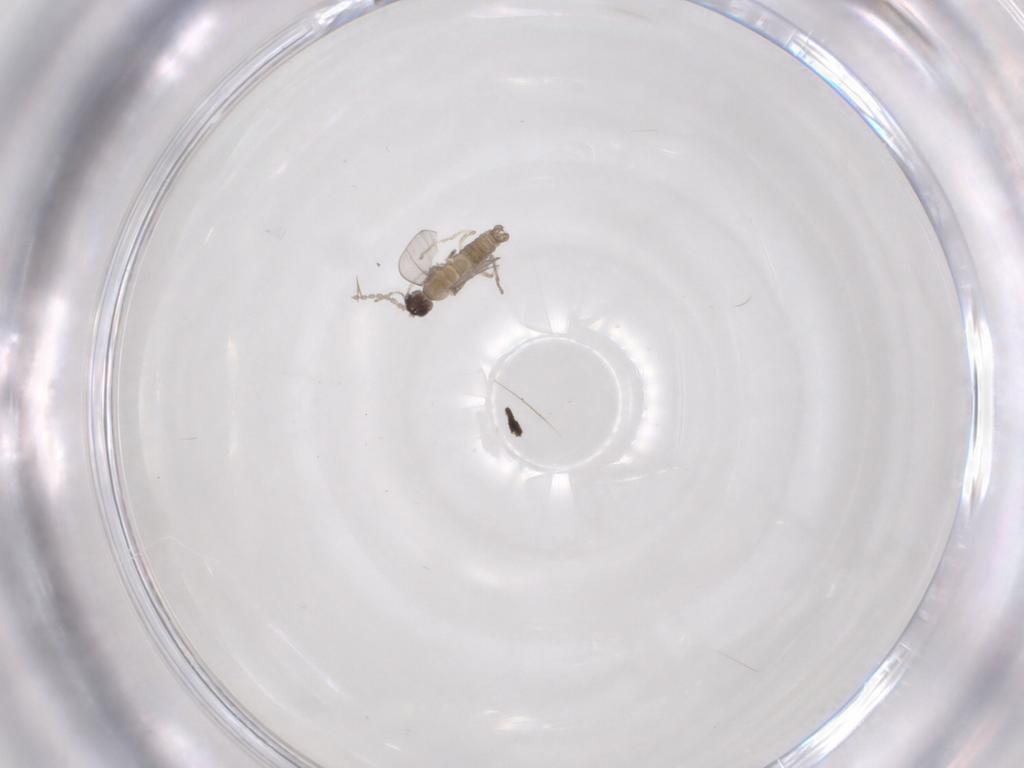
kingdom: Animalia
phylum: Arthropoda
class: Insecta
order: Diptera
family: Cecidomyiidae
